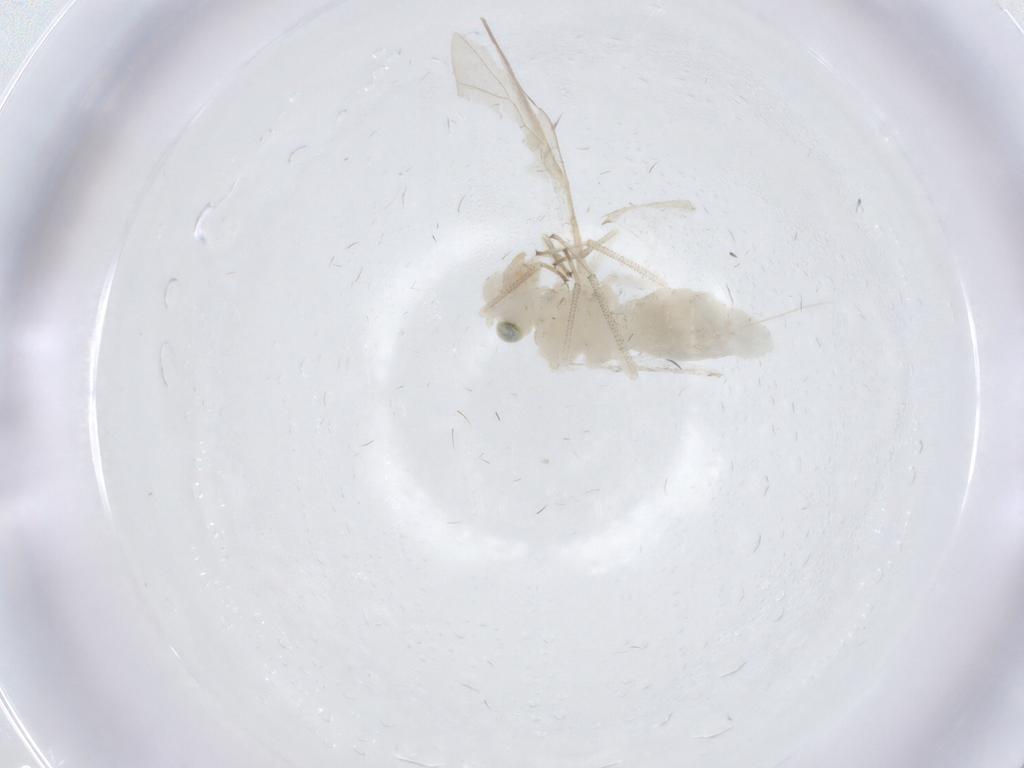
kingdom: Animalia
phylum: Arthropoda
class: Insecta
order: Psocodea
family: Caeciliusidae
